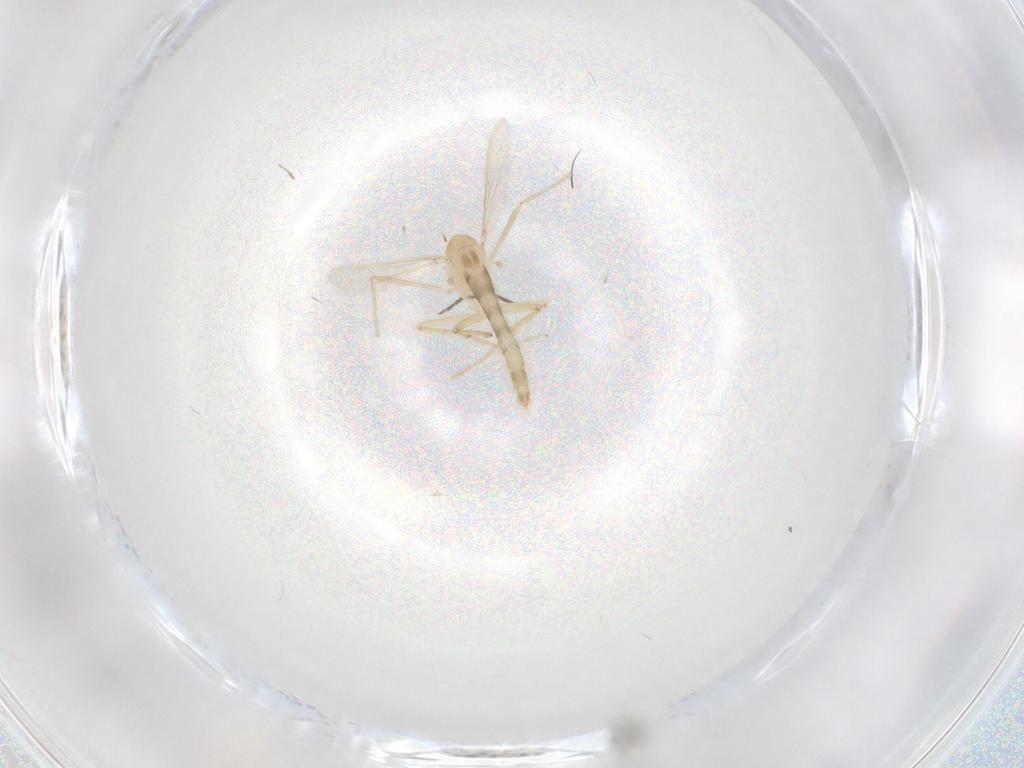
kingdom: Animalia
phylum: Arthropoda
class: Insecta
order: Diptera
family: Chironomidae
